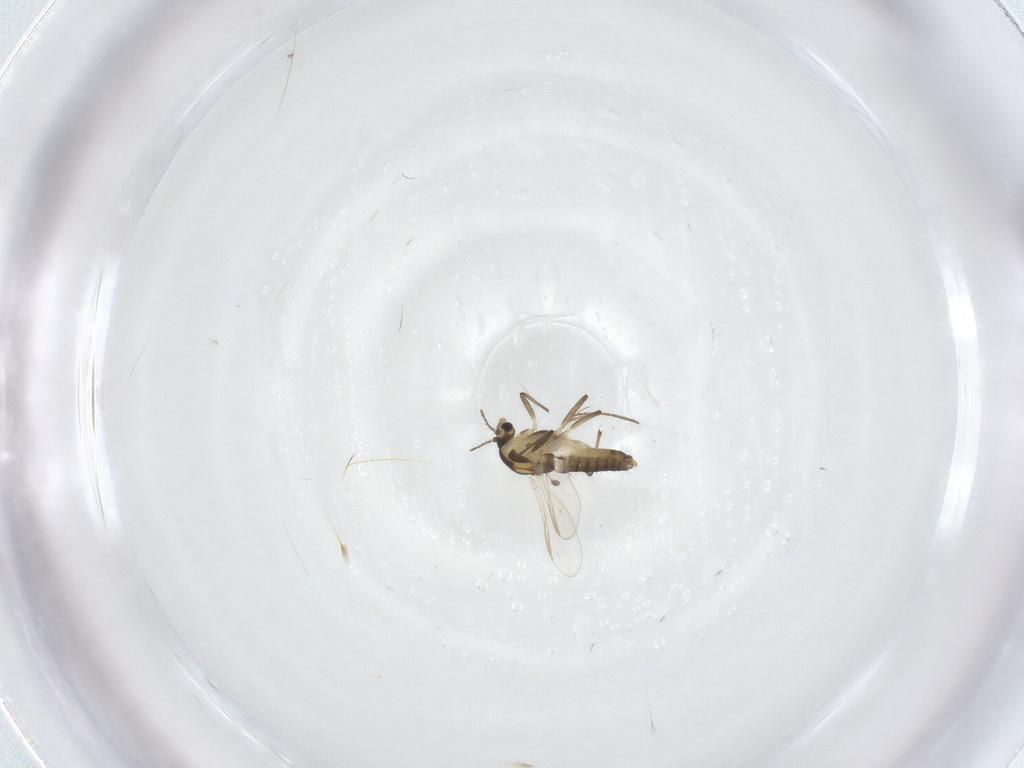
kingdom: Animalia
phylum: Arthropoda
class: Insecta
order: Diptera
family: Chironomidae
